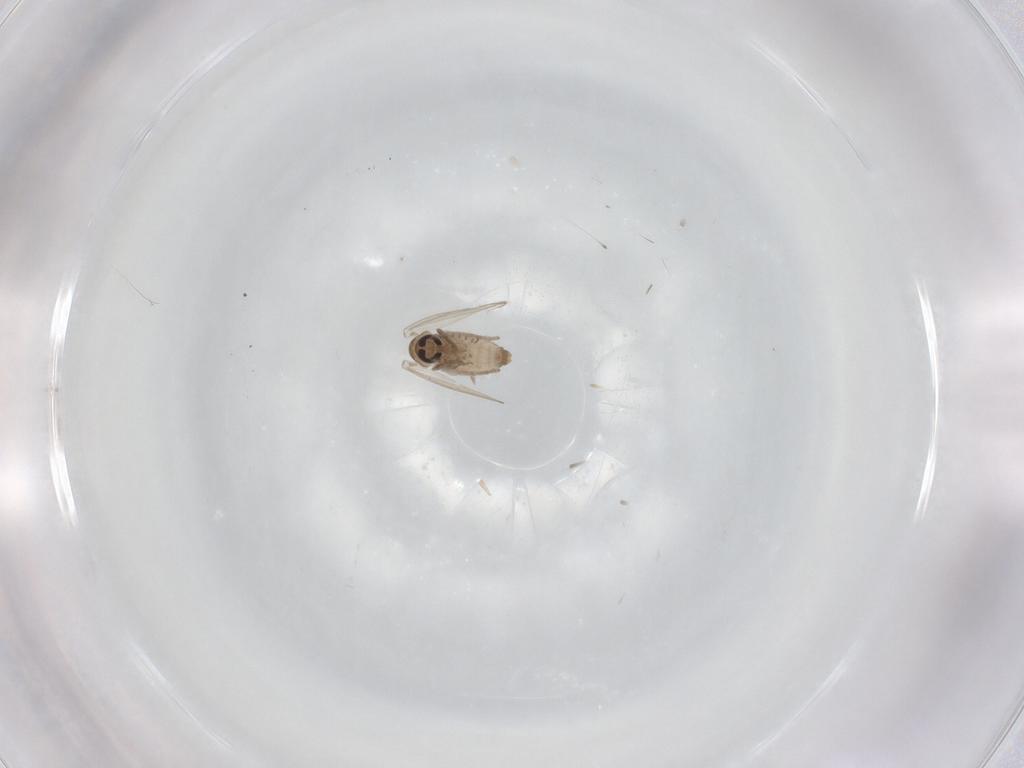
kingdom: Animalia
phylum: Arthropoda
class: Insecta
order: Diptera
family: Psychodidae
